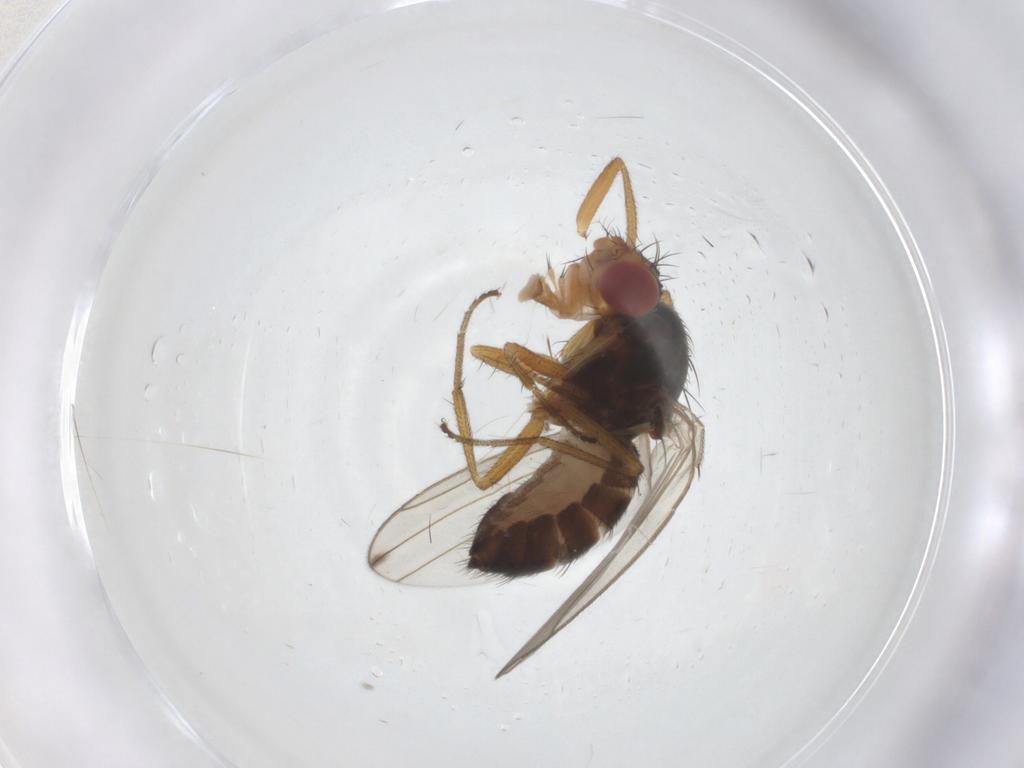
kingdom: Animalia
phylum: Arthropoda
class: Insecta
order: Diptera
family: Drosophilidae
